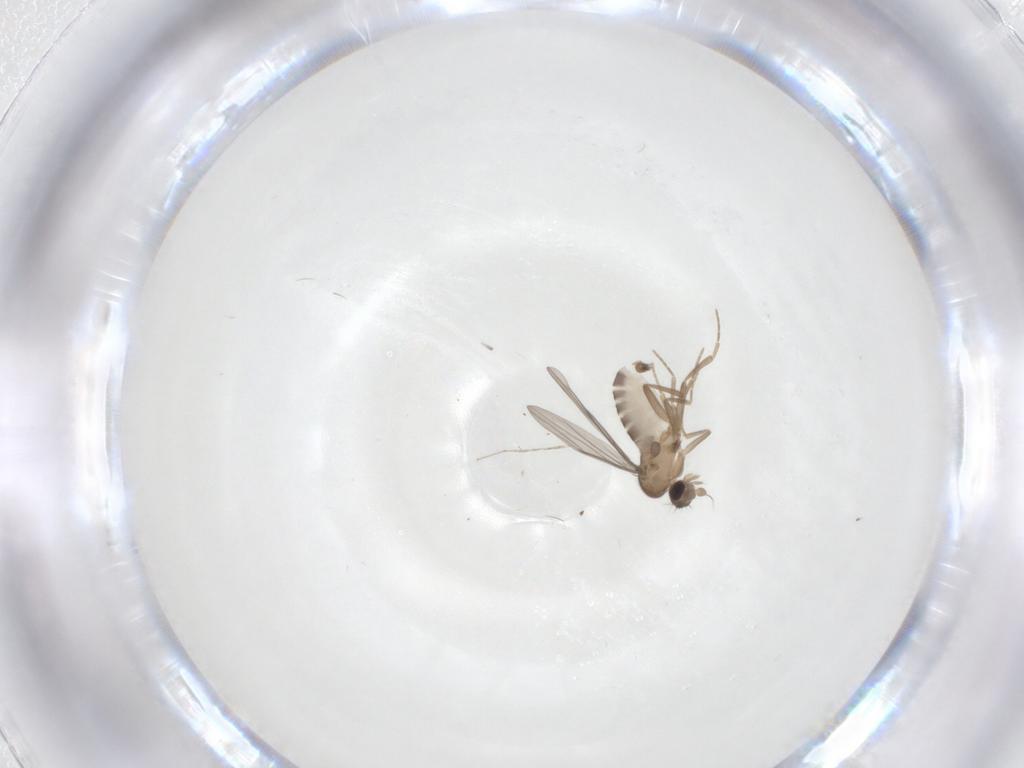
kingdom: Animalia
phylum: Arthropoda
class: Insecta
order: Diptera
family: Cecidomyiidae
